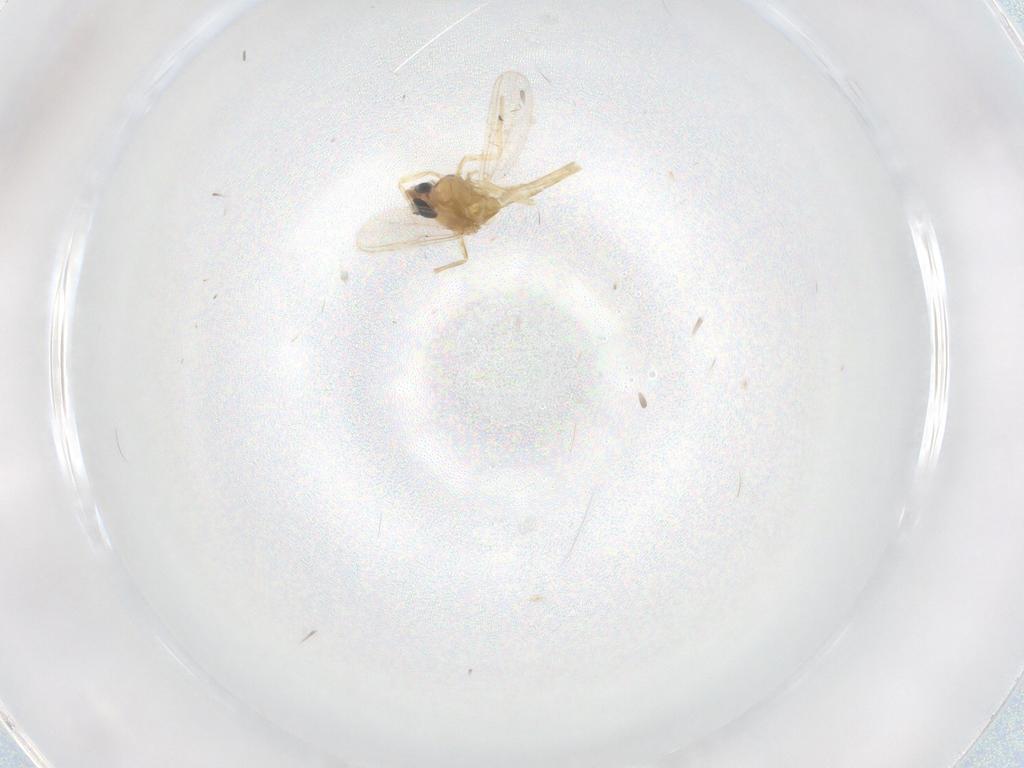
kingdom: Animalia
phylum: Arthropoda
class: Insecta
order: Diptera
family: Chironomidae
